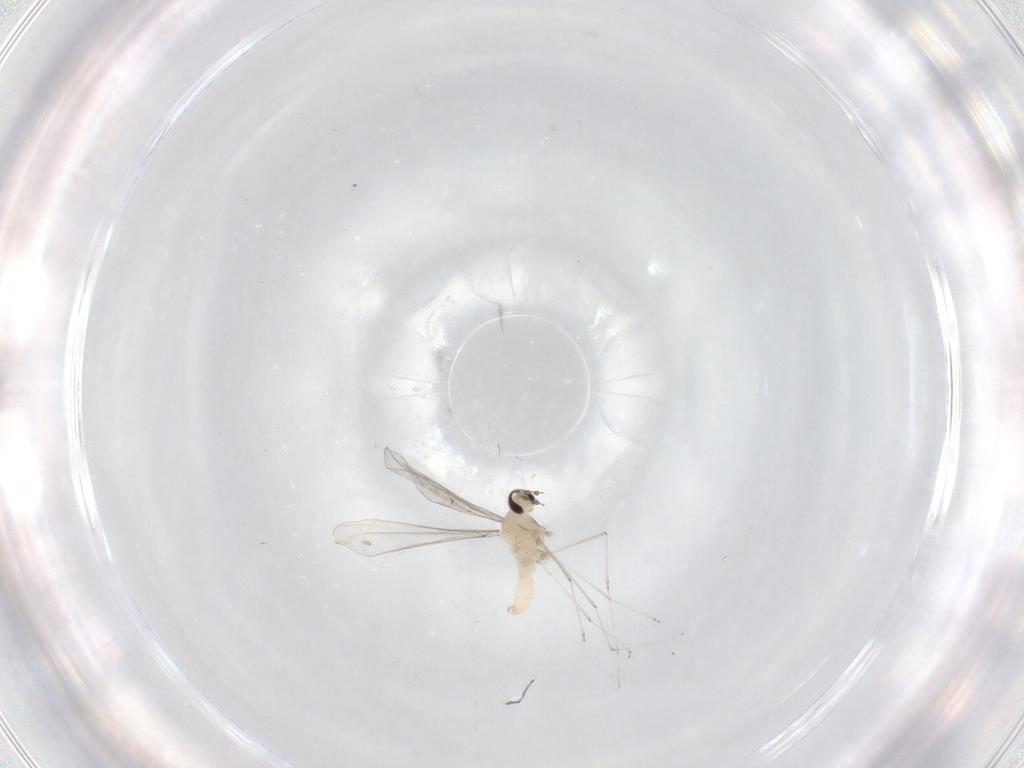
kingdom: Animalia
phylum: Arthropoda
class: Insecta
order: Diptera
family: Cecidomyiidae
